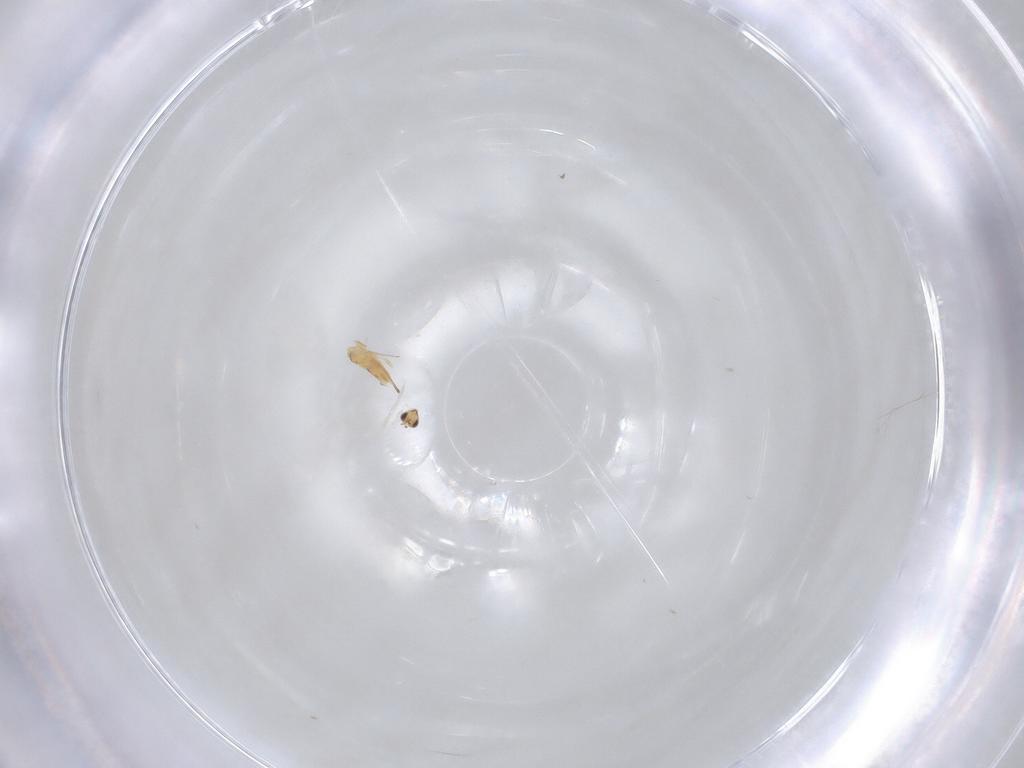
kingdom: Animalia
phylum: Arthropoda
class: Insecta
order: Hymenoptera
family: Mymaridae
